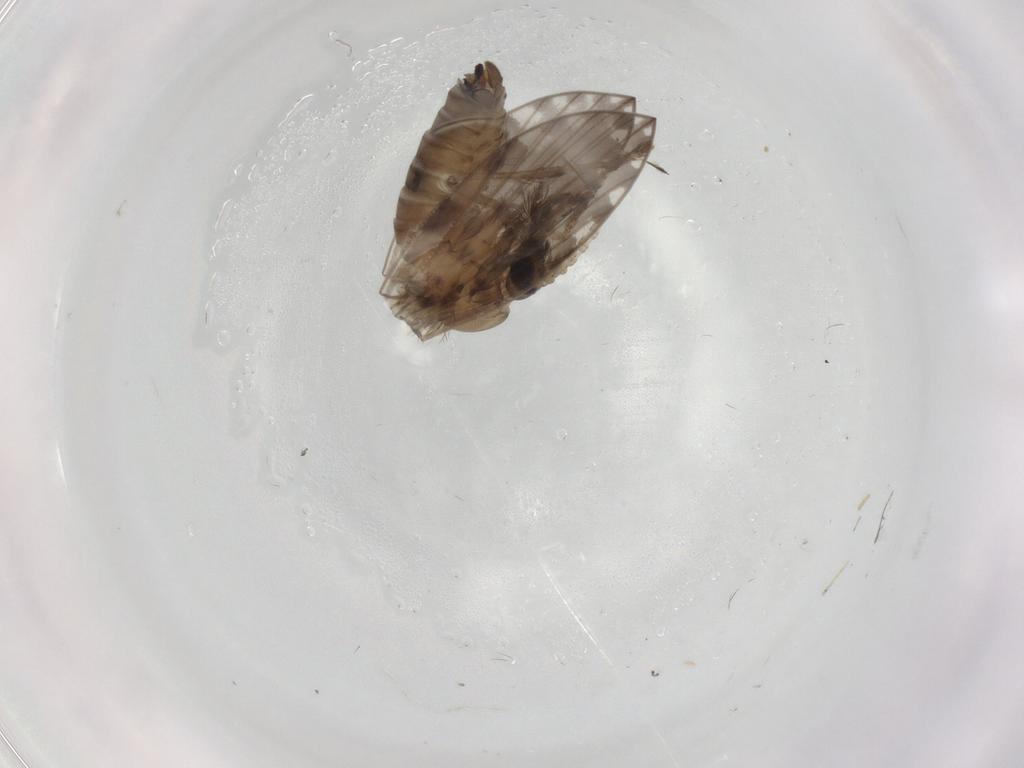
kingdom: Animalia
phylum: Arthropoda
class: Insecta
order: Diptera
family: Psychodidae
